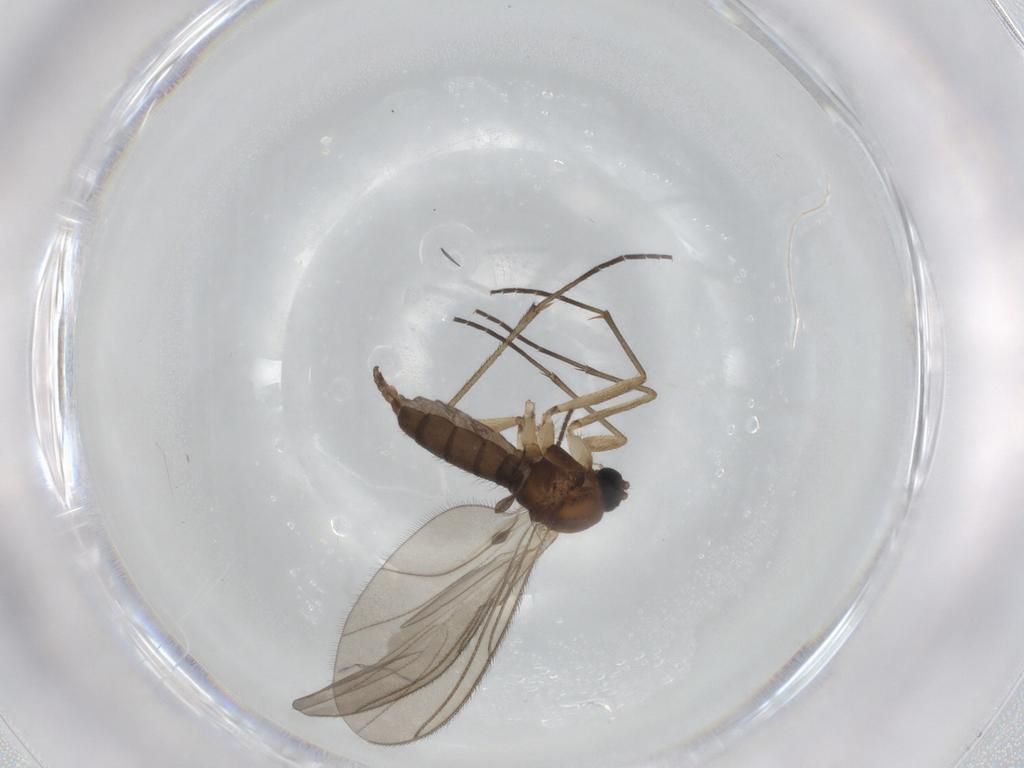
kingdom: Animalia
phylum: Arthropoda
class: Insecta
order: Diptera
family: Sciaridae
